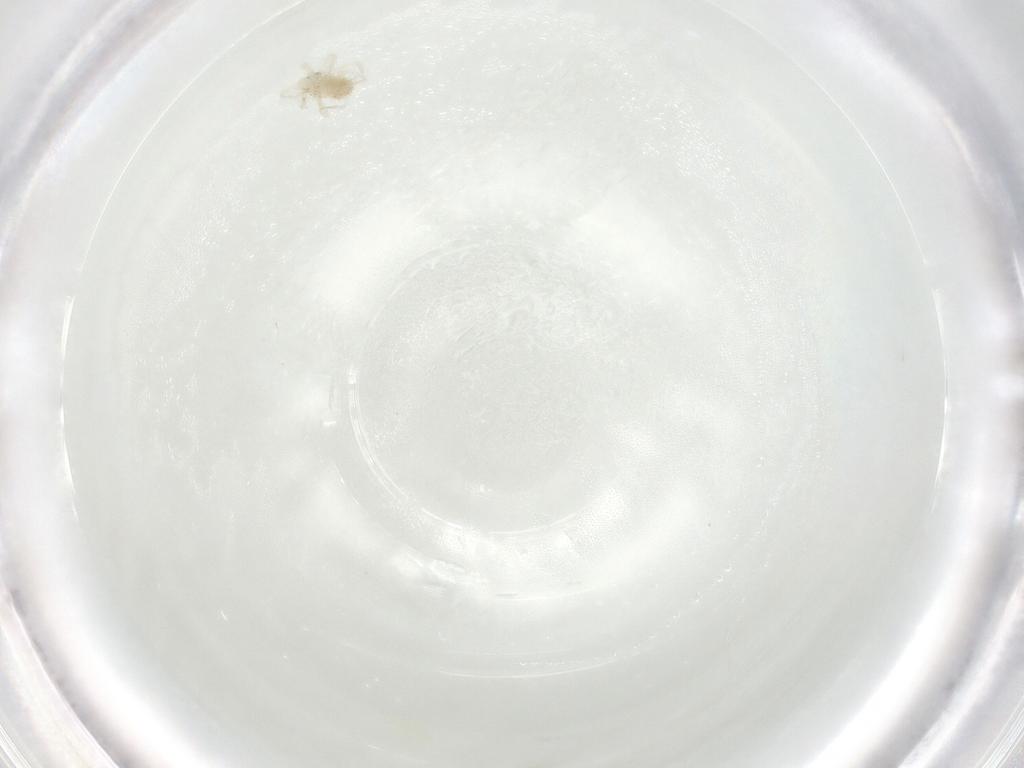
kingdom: Animalia
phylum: Arthropoda
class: Arachnida
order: Trombidiformes
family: Anystidae
